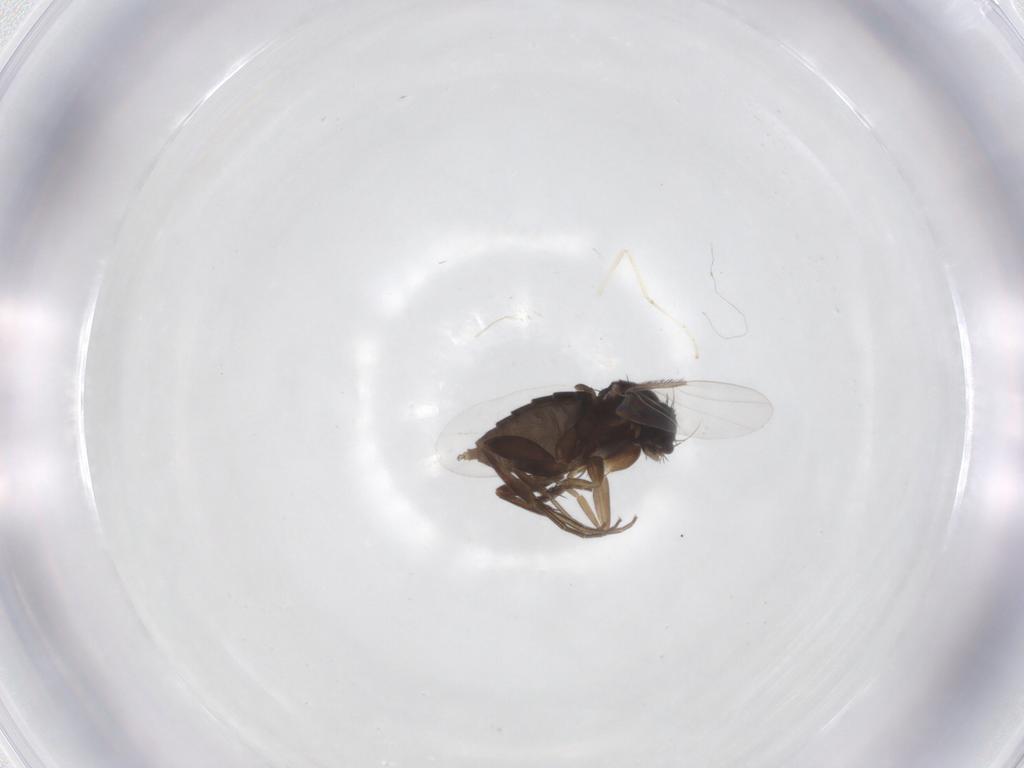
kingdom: Animalia
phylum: Arthropoda
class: Insecta
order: Diptera
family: Phoridae
